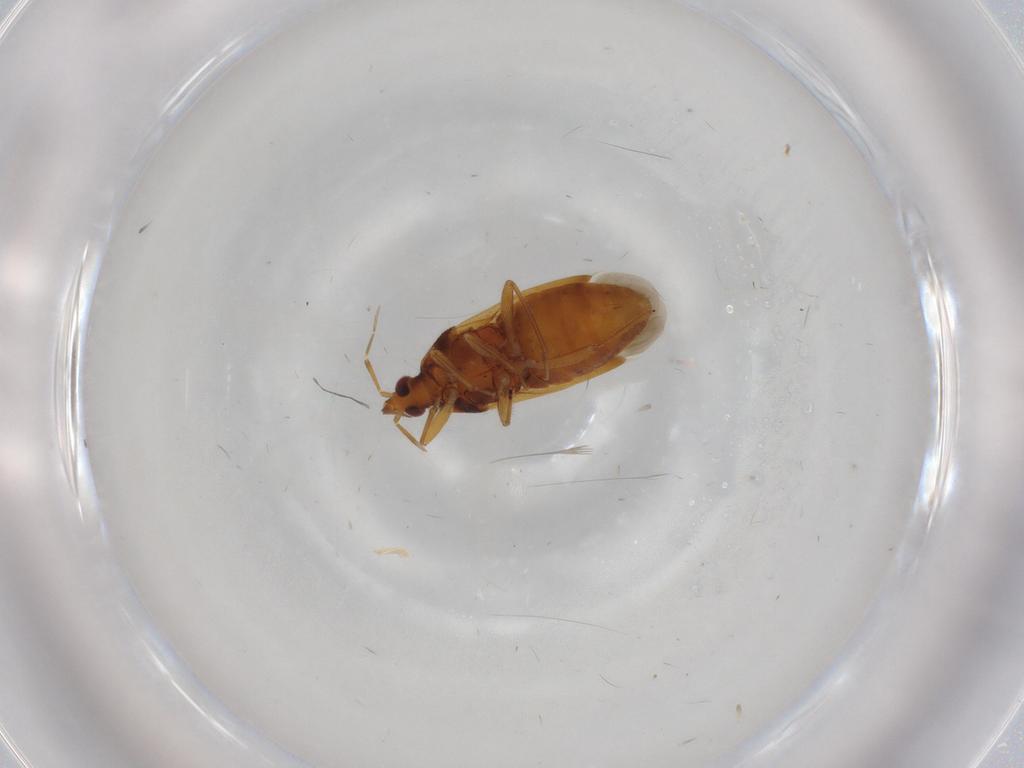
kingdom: Animalia
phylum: Arthropoda
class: Insecta
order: Hemiptera
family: Anthocoridae
